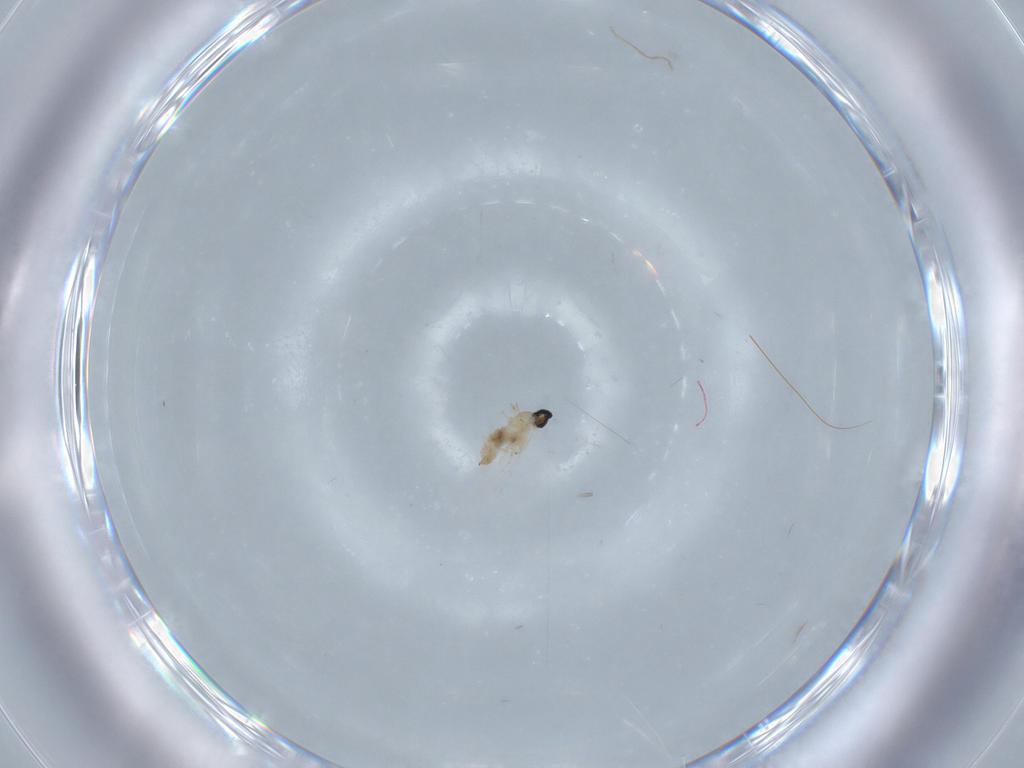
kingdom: Animalia
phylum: Arthropoda
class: Insecta
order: Diptera
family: Cecidomyiidae
